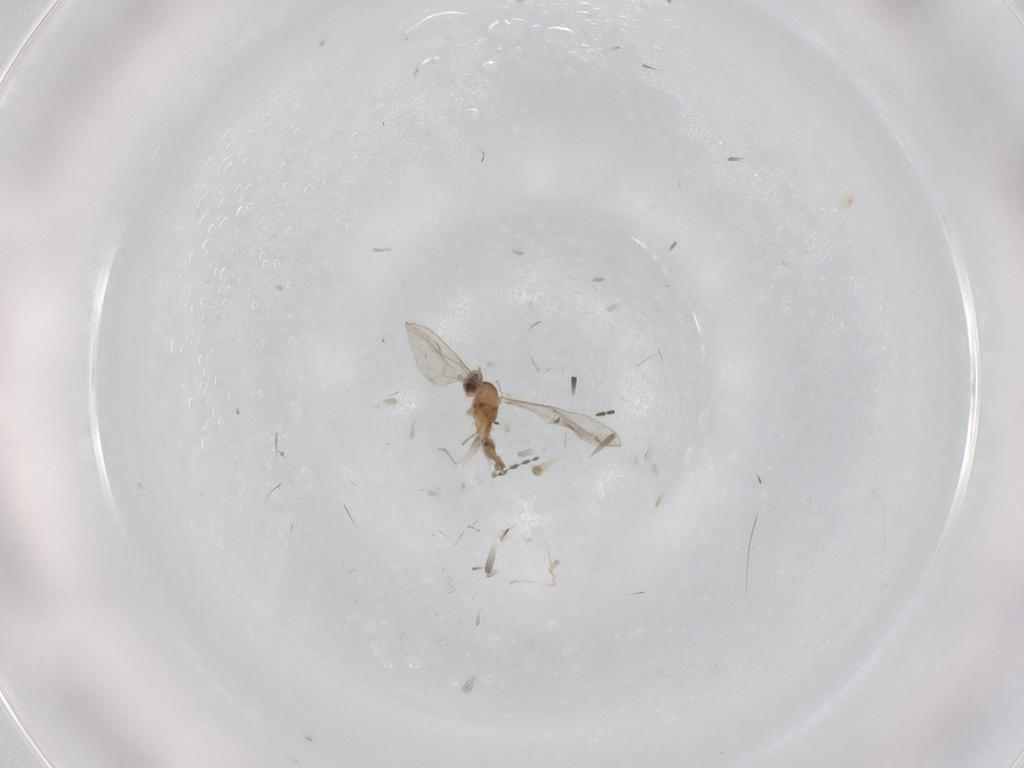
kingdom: Animalia
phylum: Arthropoda
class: Insecta
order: Diptera
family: Cecidomyiidae
